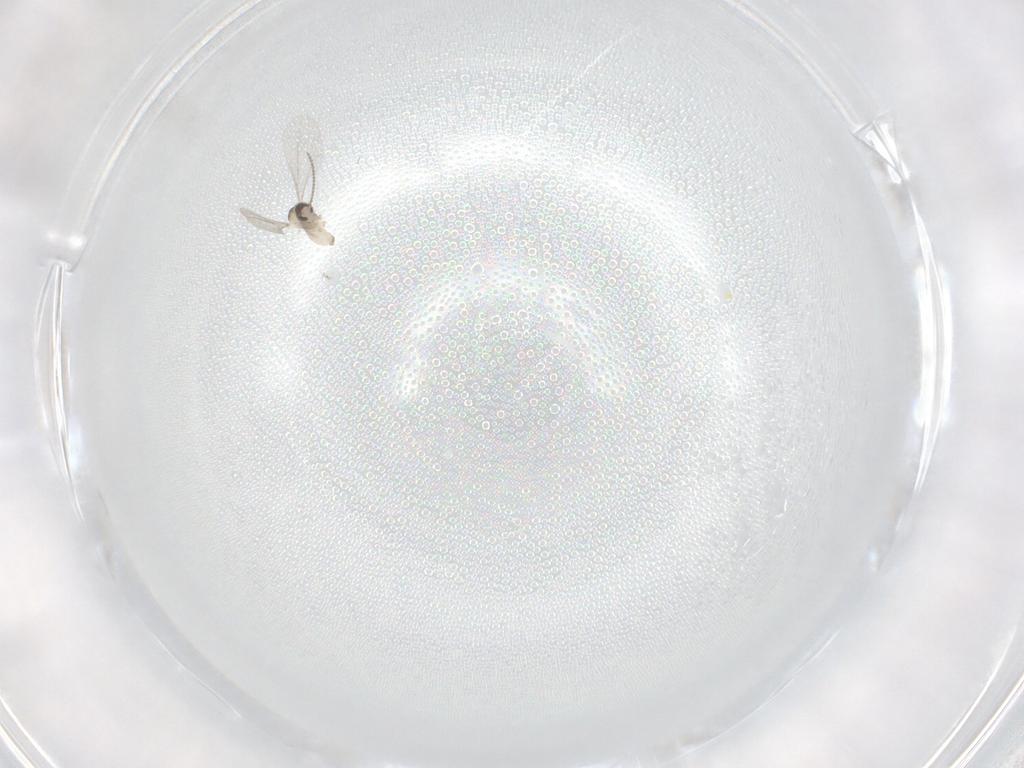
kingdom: Animalia
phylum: Arthropoda
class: Insecta
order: Diptera
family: Cecidomyiidae
